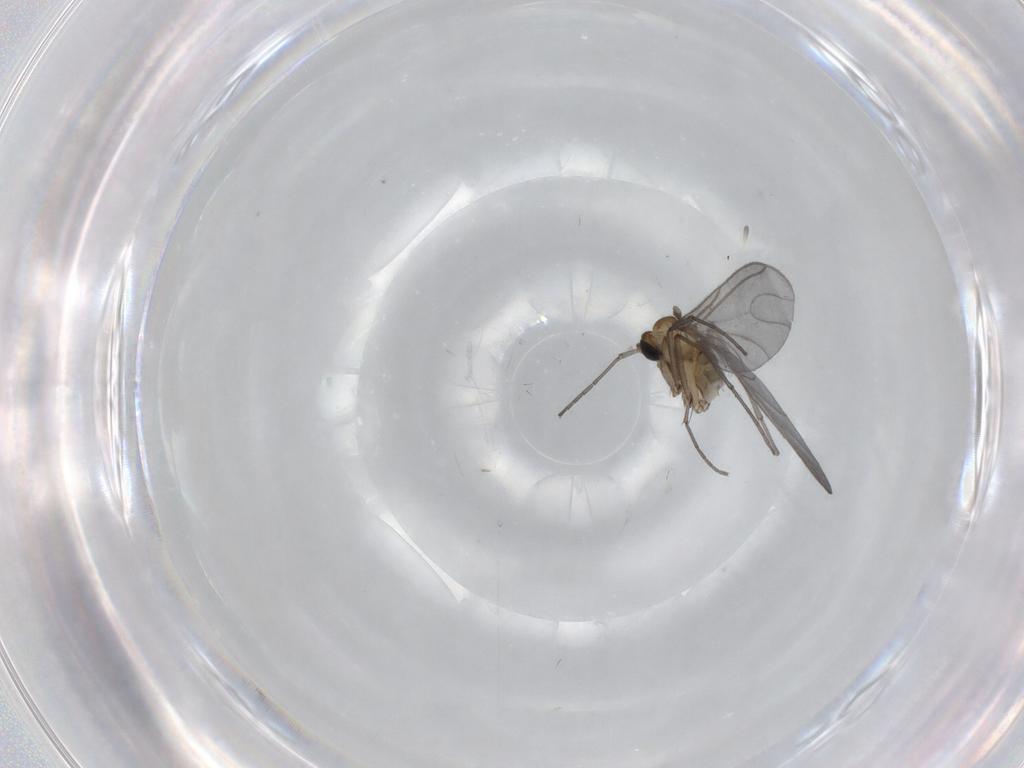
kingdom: Animalia
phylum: Arthropoda
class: Insecta
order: Diptera
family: Sciaridae
